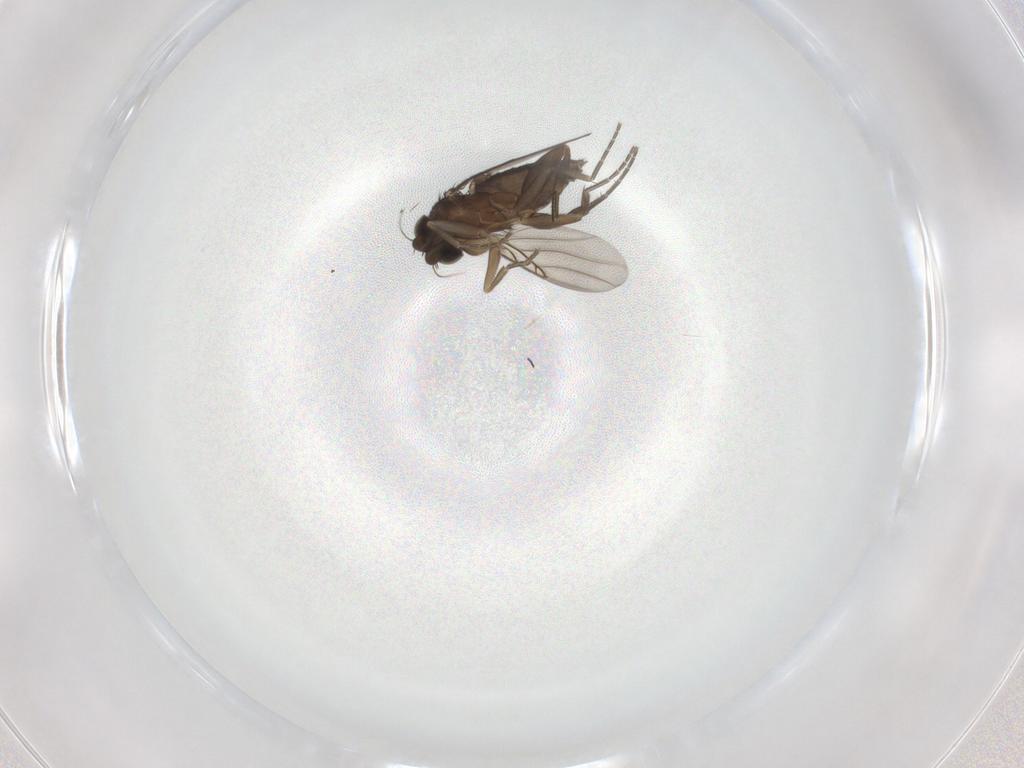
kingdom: Animalia
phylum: Arthropoda
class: Insecta
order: Diptera
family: Phoridae
